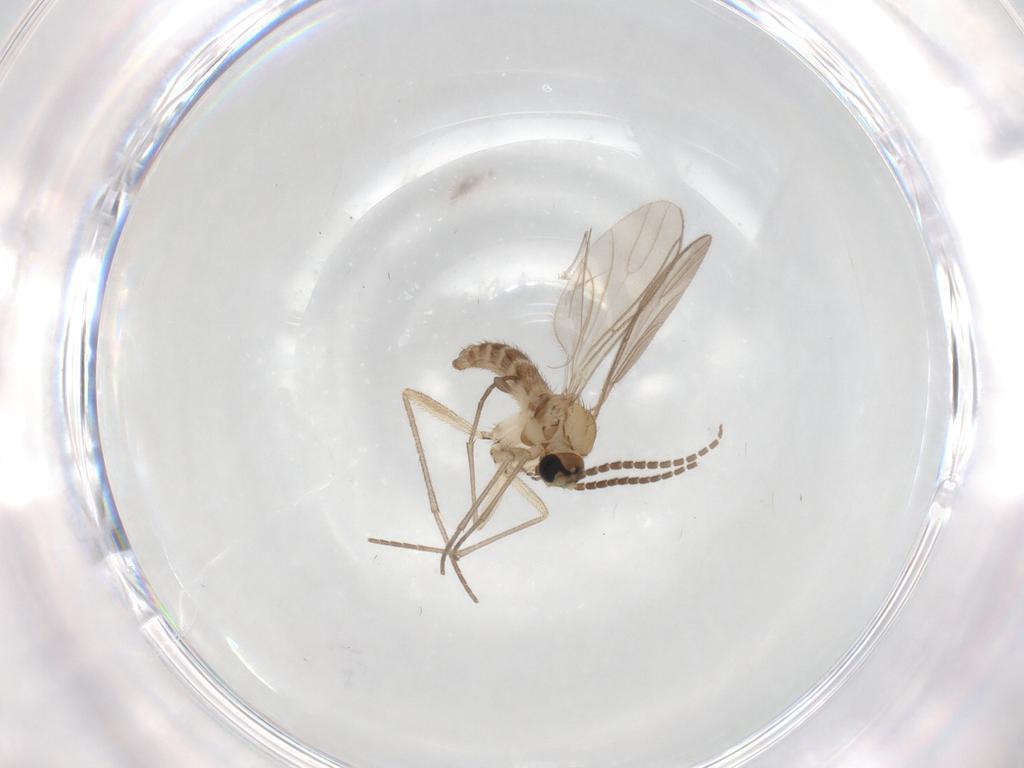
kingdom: Animalia
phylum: Arthropoda
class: Insecta
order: Diptera
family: Sciaridae
